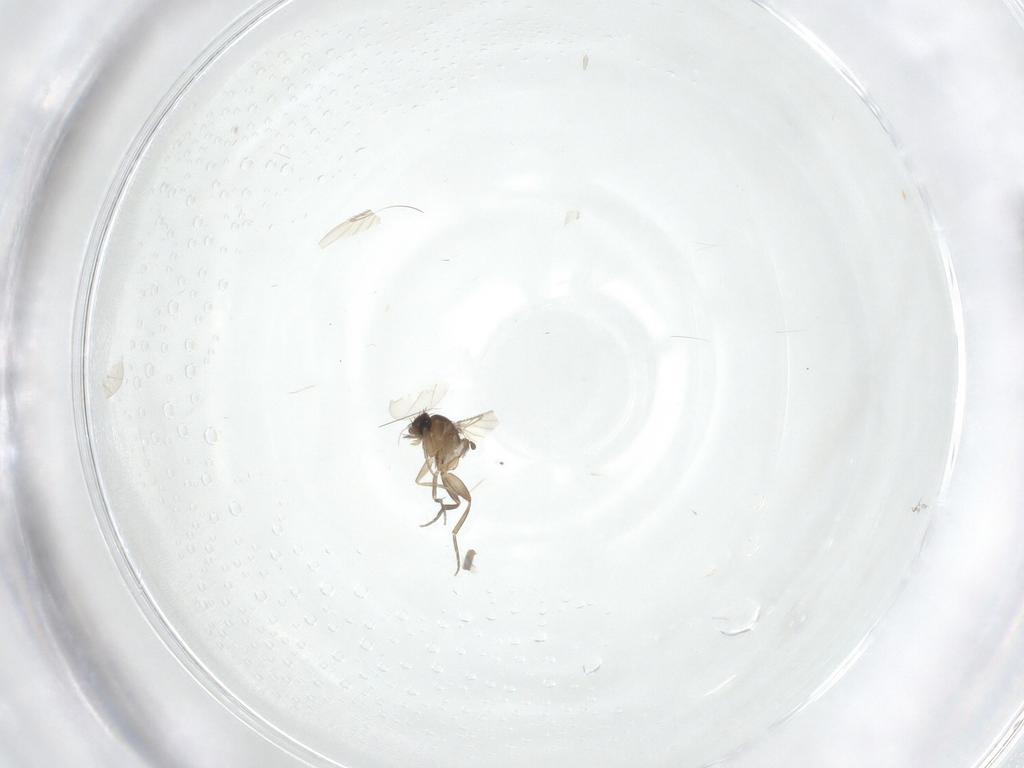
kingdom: Animalia
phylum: Arthropoda
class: Insecta
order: Diptera
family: Phoridae
